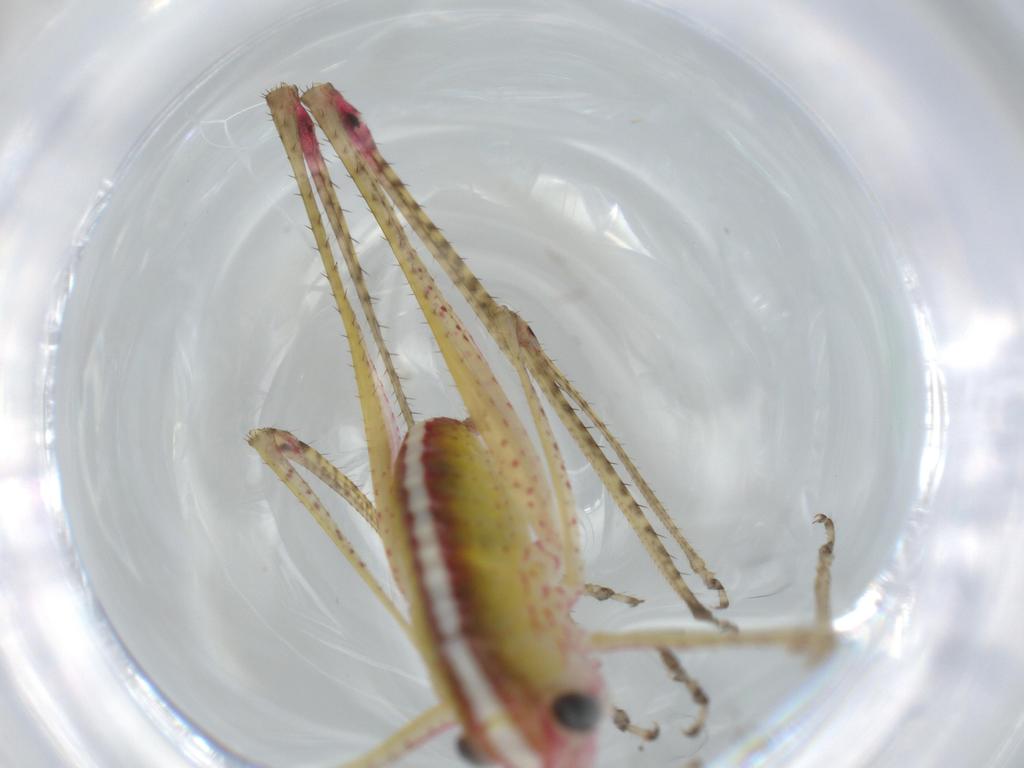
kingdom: Animalia
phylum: Arthropoda
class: Insecta
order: Orthoptera
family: Tettigoniidae
